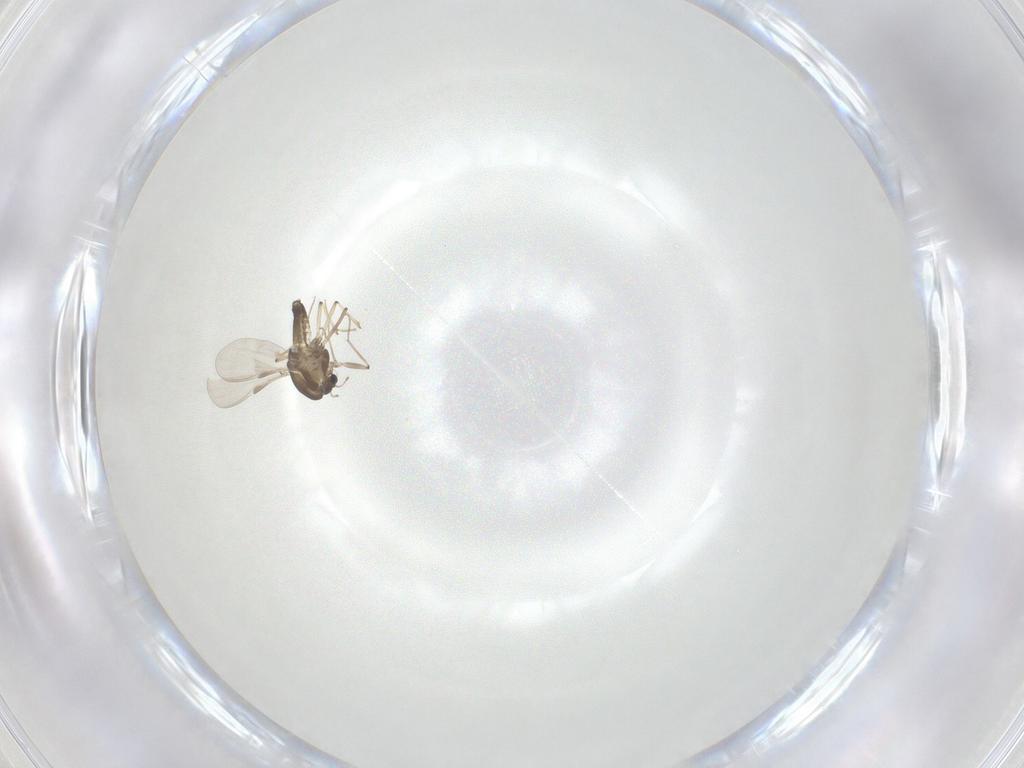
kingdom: Animalia
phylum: Arthropoda
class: Insecta
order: Diptera
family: Chironomidae
